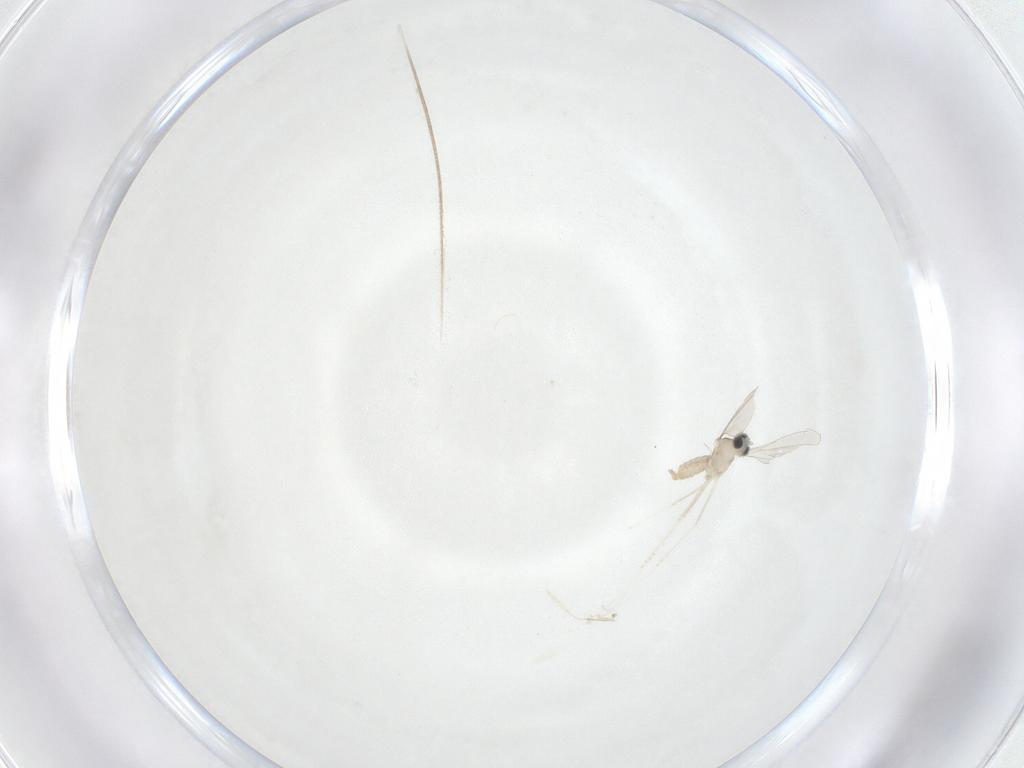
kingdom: Animalia
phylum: Arthropoda
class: Insecta
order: Diptera
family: Cecidomyiidae
